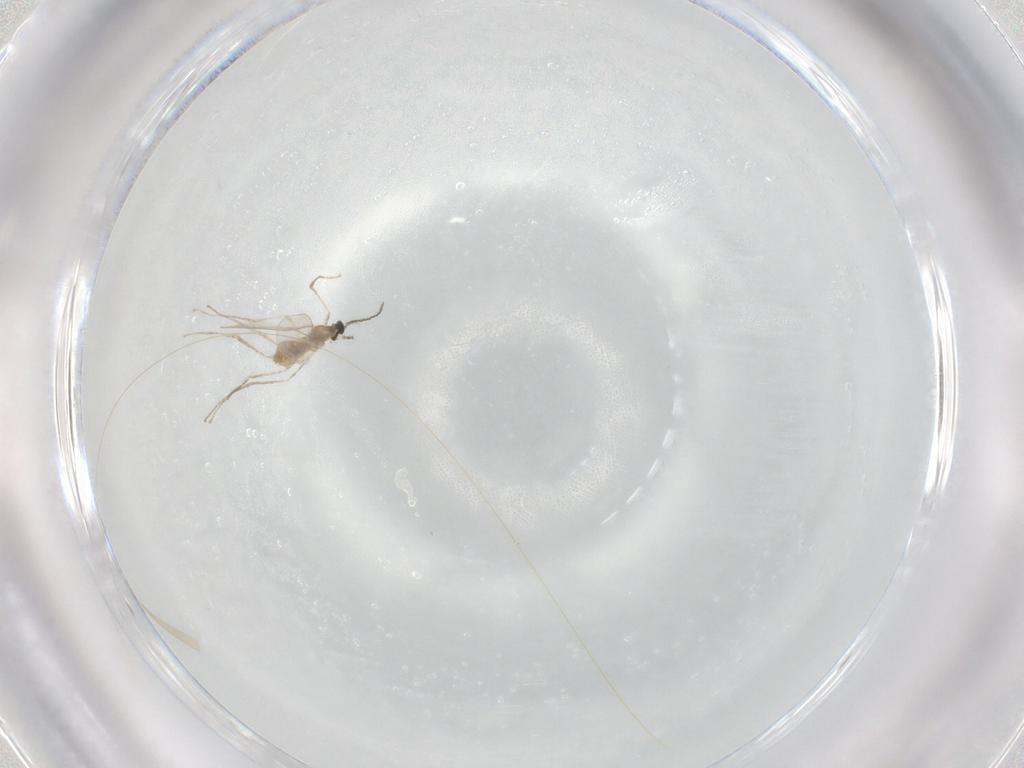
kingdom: Animalia
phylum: Arthropoda
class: Insecta
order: Diptera
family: Cecidomyiidae
